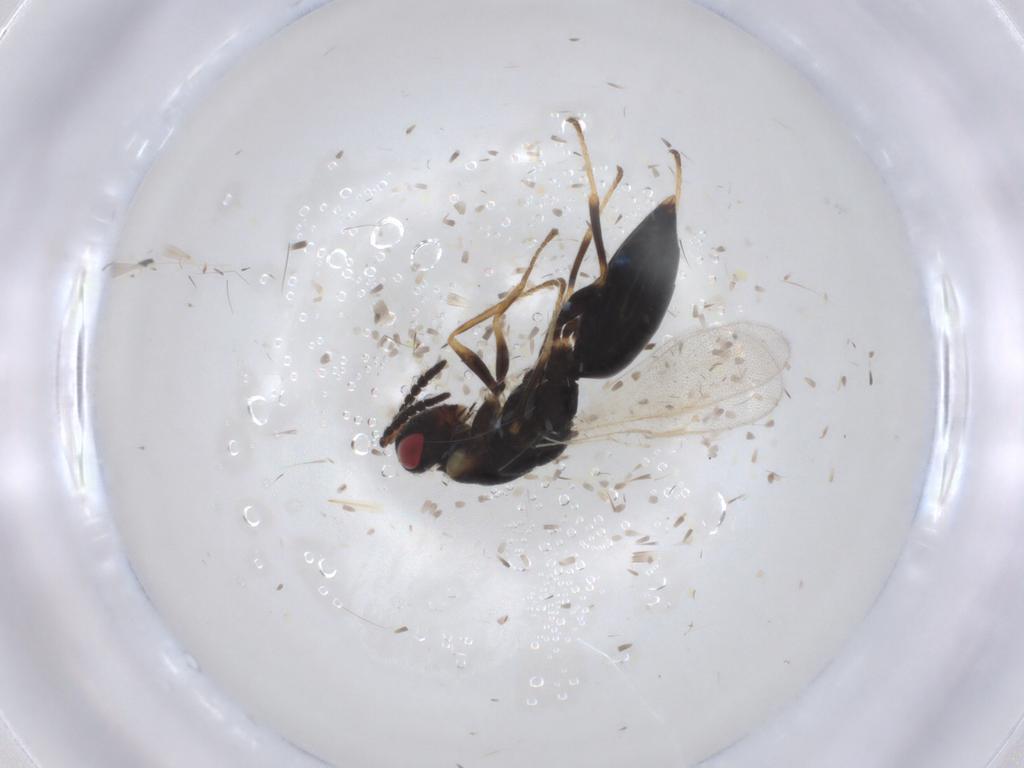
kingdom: Animalia
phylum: Arthropoda
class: Insecta
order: Hymenoptera
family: Eurytomidae
